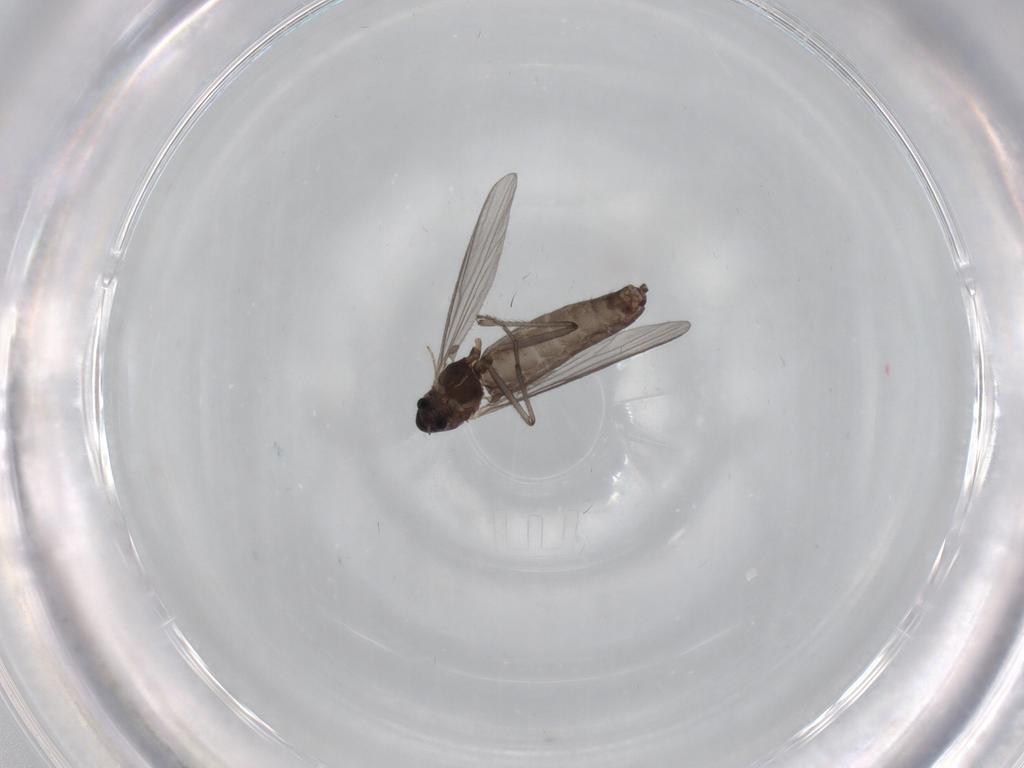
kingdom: Animalia
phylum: Arthropoda
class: Insecta
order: Diptera
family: Chironomidae
